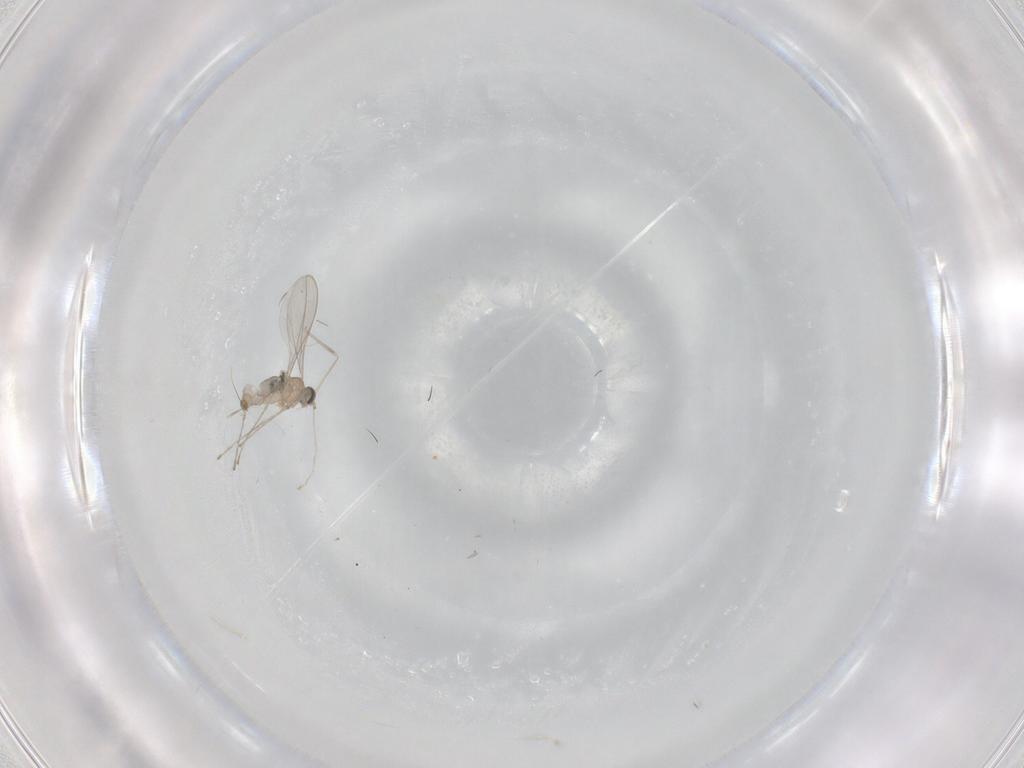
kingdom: Animalia
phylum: Arthropoda
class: Insecta
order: Diptera
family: Cecidomyiidae
